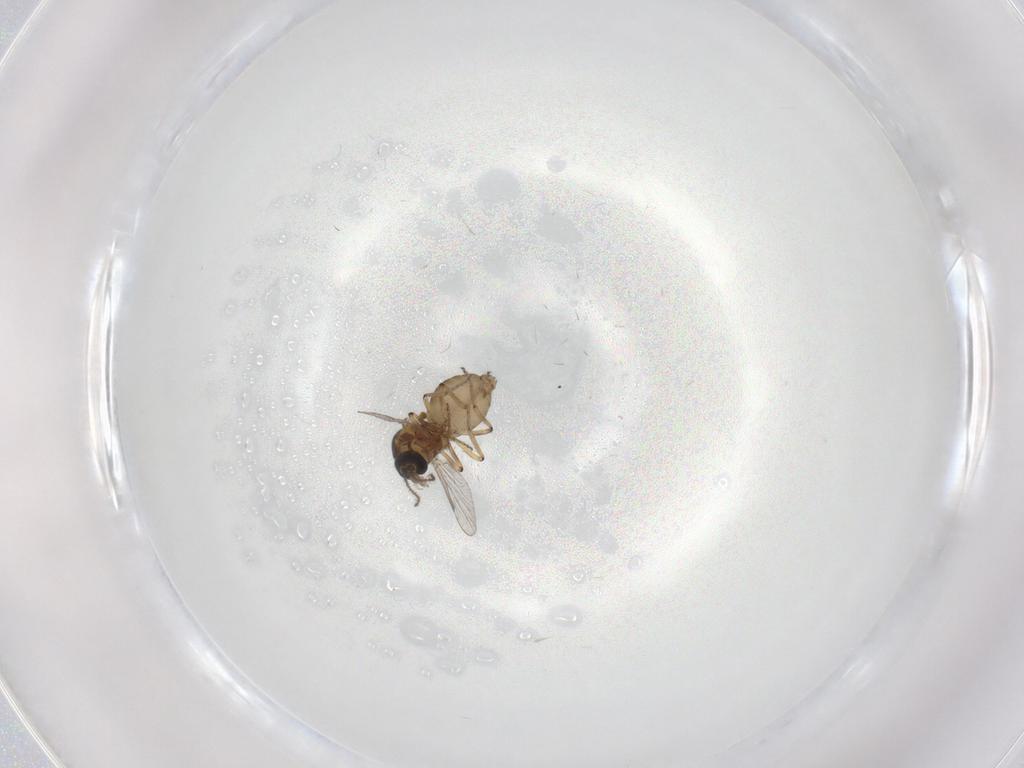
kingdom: Animalia
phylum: Arthropoda
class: Insecta
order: Diptera
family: Ceratopogonidae
